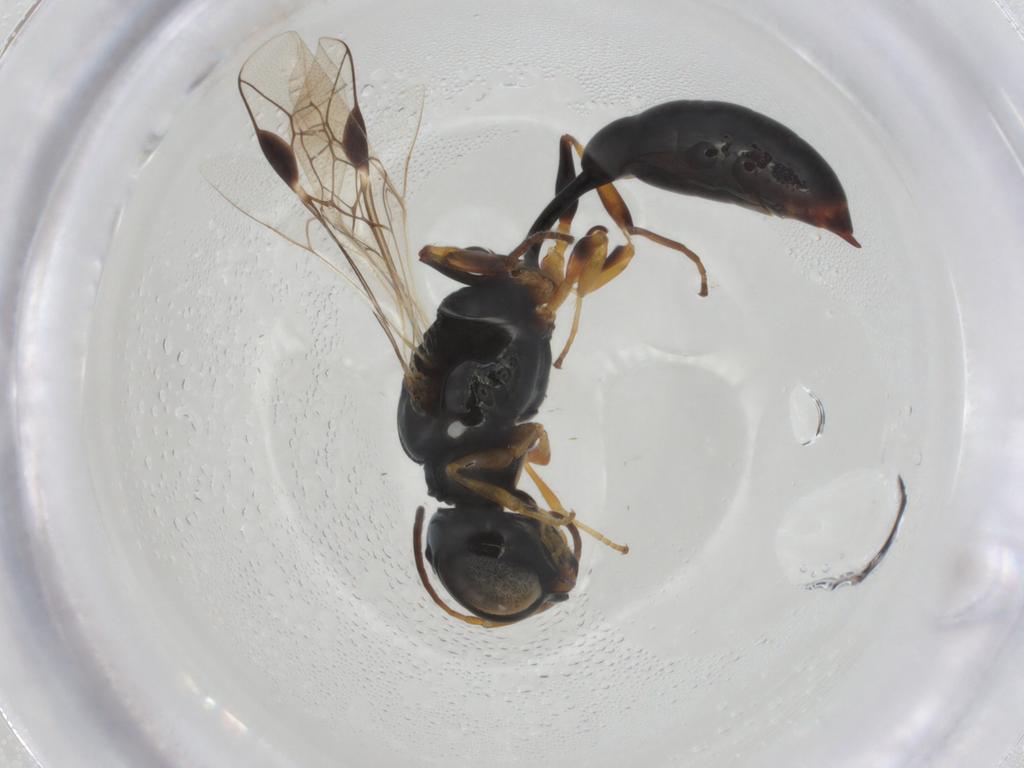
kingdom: Animalia
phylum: Arthropoda
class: Insecta
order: Hymenoptera
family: Crabronidae
